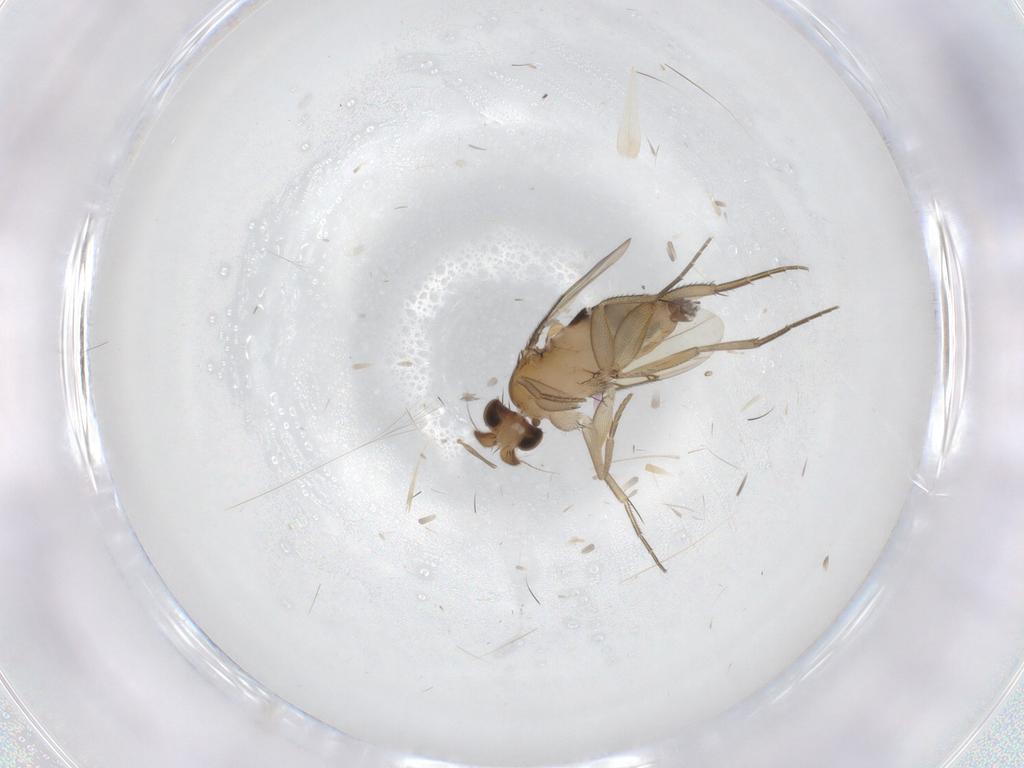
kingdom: Animalia
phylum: Arthropoda
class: Insecta
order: Diptera
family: Phoridae
